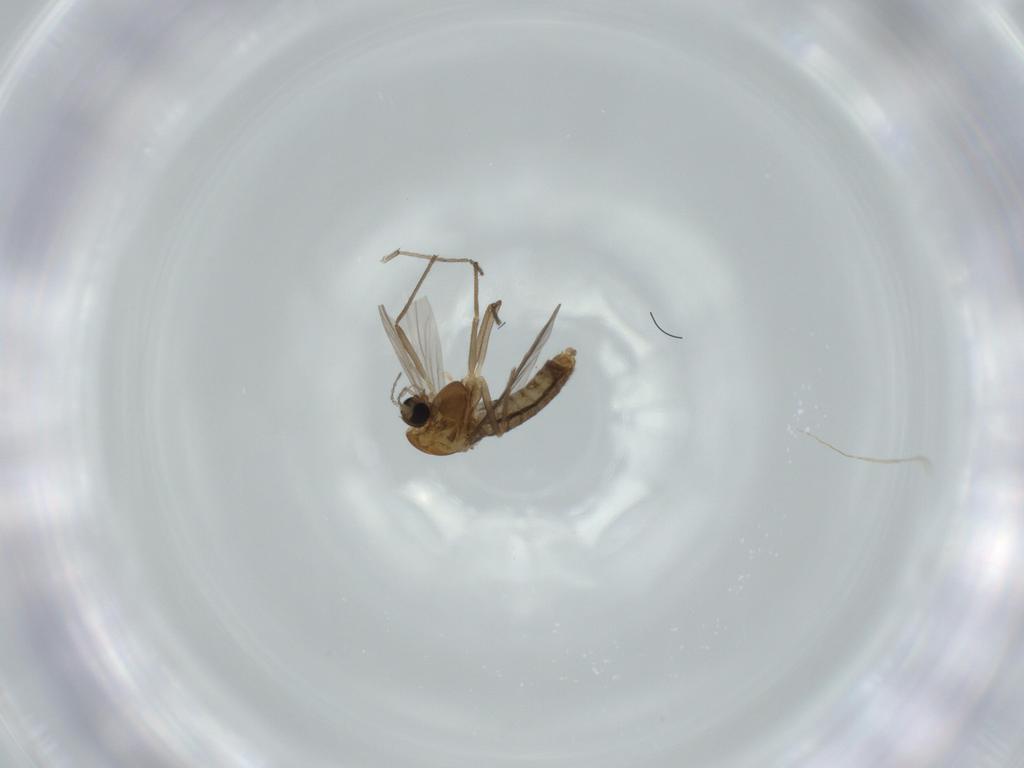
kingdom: Animalia
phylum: Arthropoda
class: Insecta
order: Diptera
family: Chironomidae
